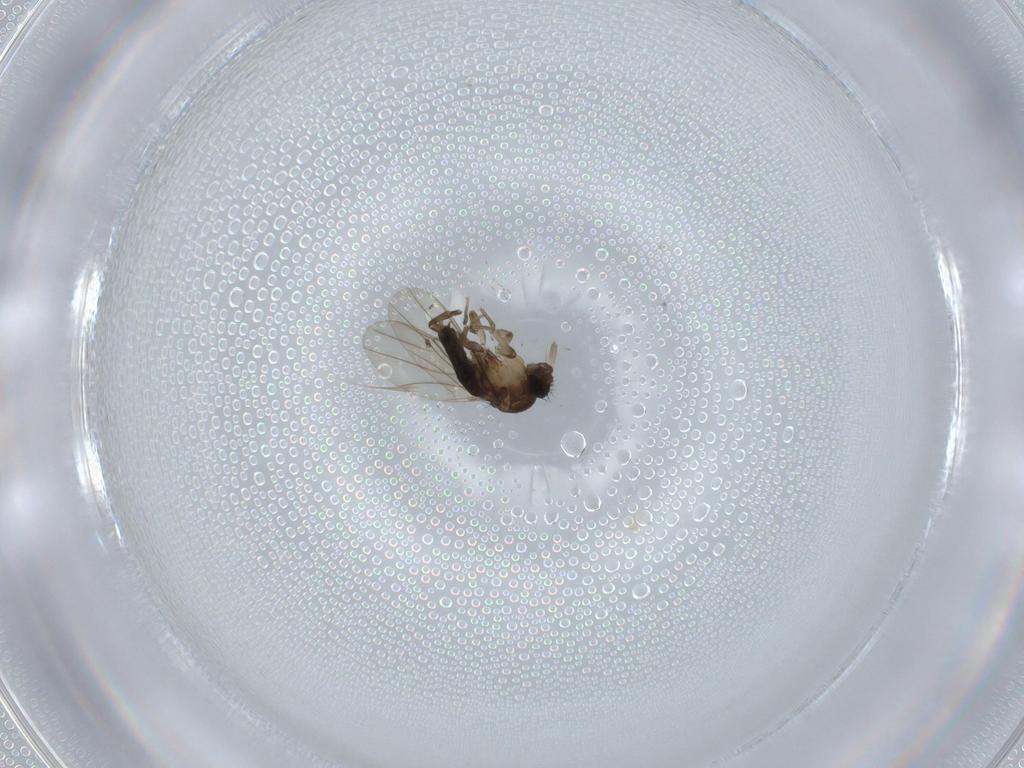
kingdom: Animalia
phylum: Arthropoda
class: Insecta
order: Diptera
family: Phoridae
